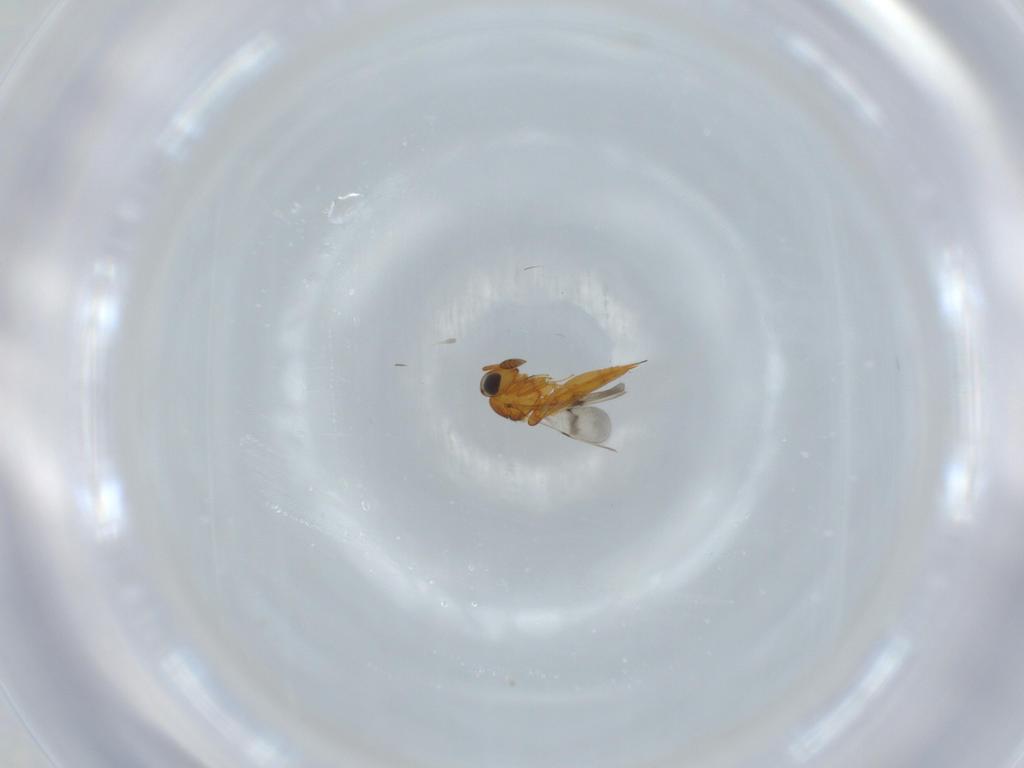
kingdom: Animalia
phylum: Arthropoda
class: Insecta
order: Hymenoptera
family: Scelionidae
